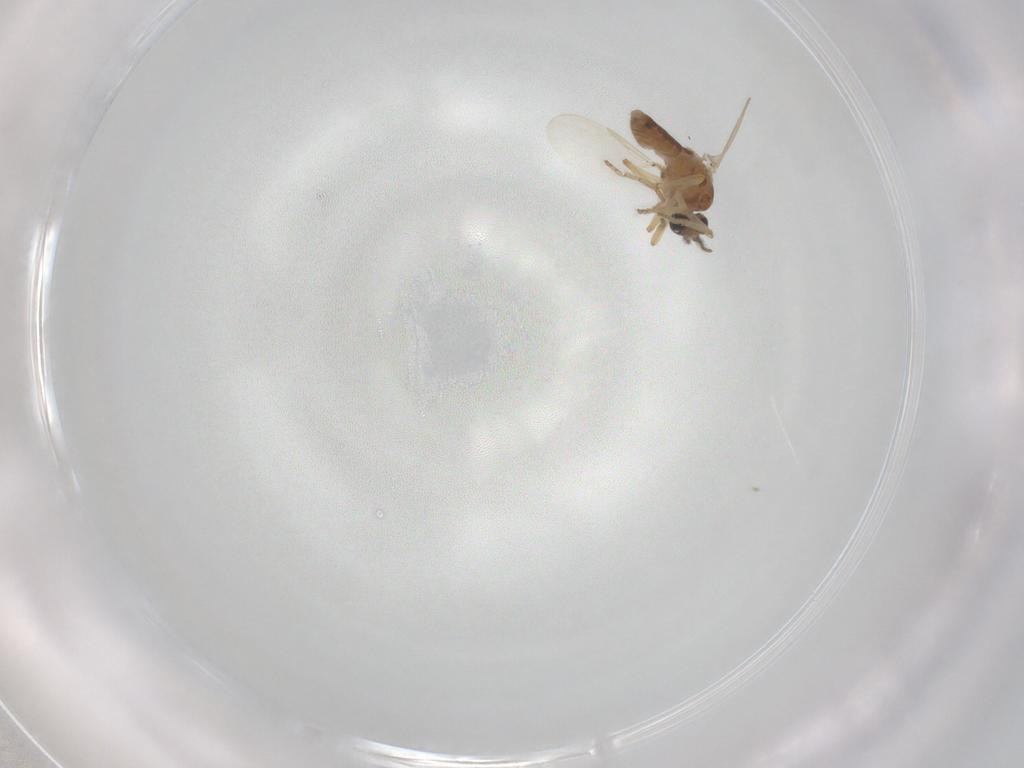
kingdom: Animalia
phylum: Arthropoda
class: Insecta
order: Diptera
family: Ceratopogonidae
